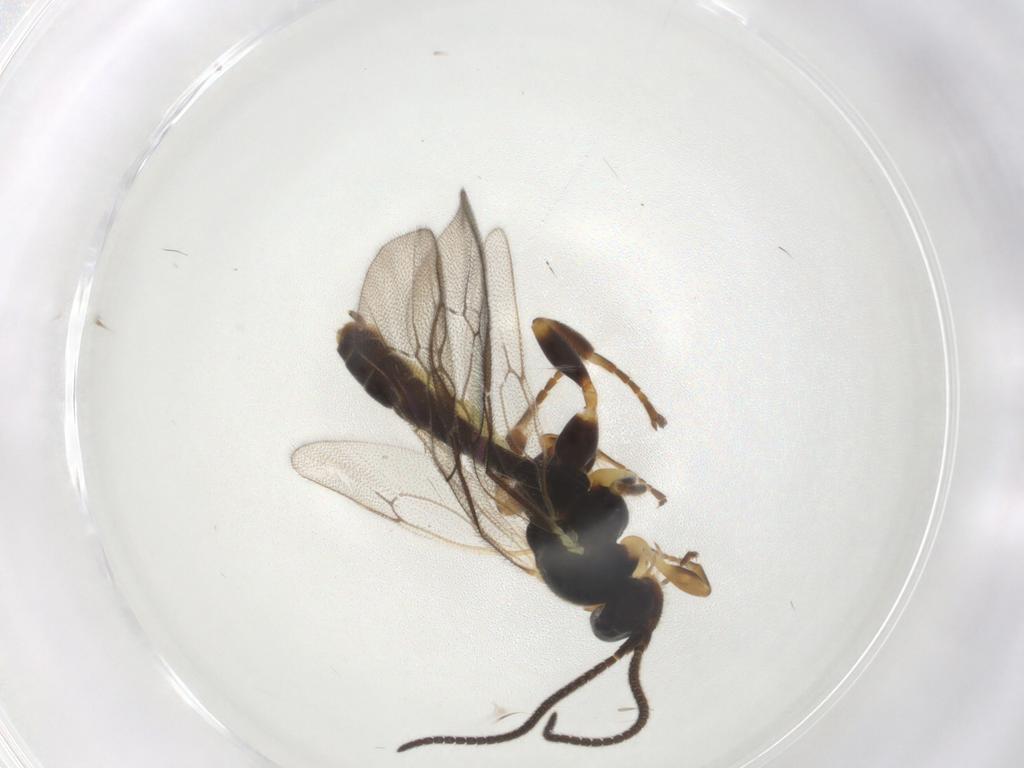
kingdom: Animalia
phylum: Arthropoda
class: Insecta
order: Hymenoptera
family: Ichneumonidae
